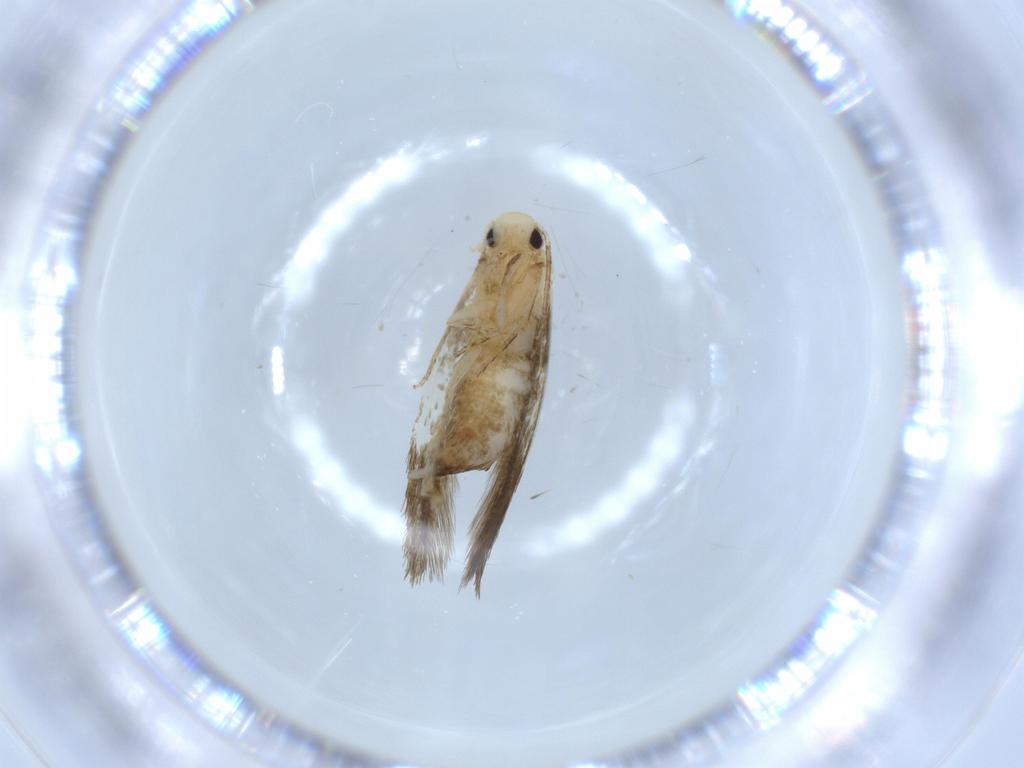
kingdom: Animalia
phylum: Arthropoda
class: Insecta
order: Lepidoptera
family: Tineidae
